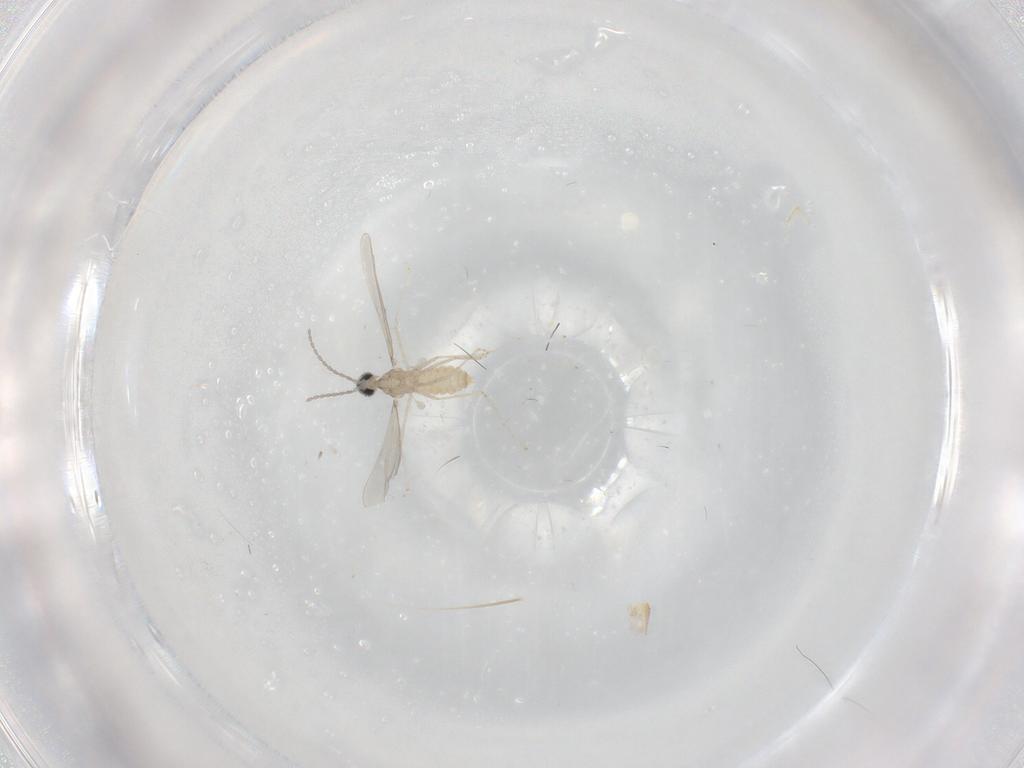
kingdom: Animalia
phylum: Arthropoda
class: Insecta
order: Diptera
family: Cecidomyiidae
